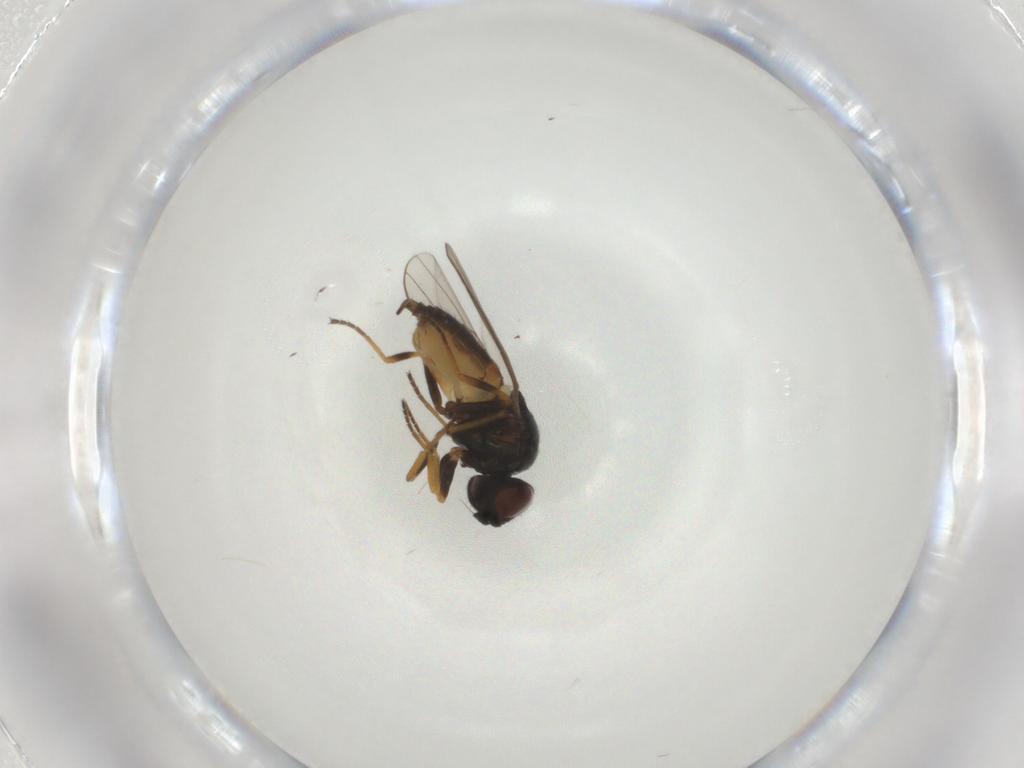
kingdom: Animalia
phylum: Arthropoda
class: Insecta
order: Diptera
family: Chloropidae
